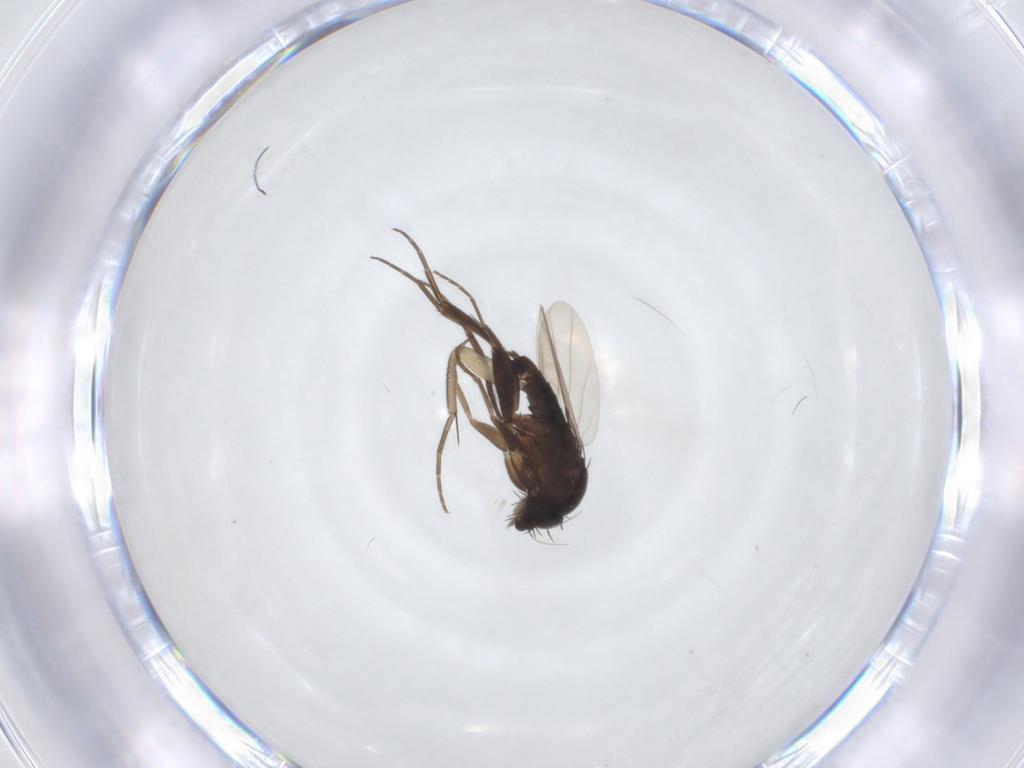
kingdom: Animalia
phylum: Arthropoda
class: Insecta
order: Diptera
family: Phoridae
